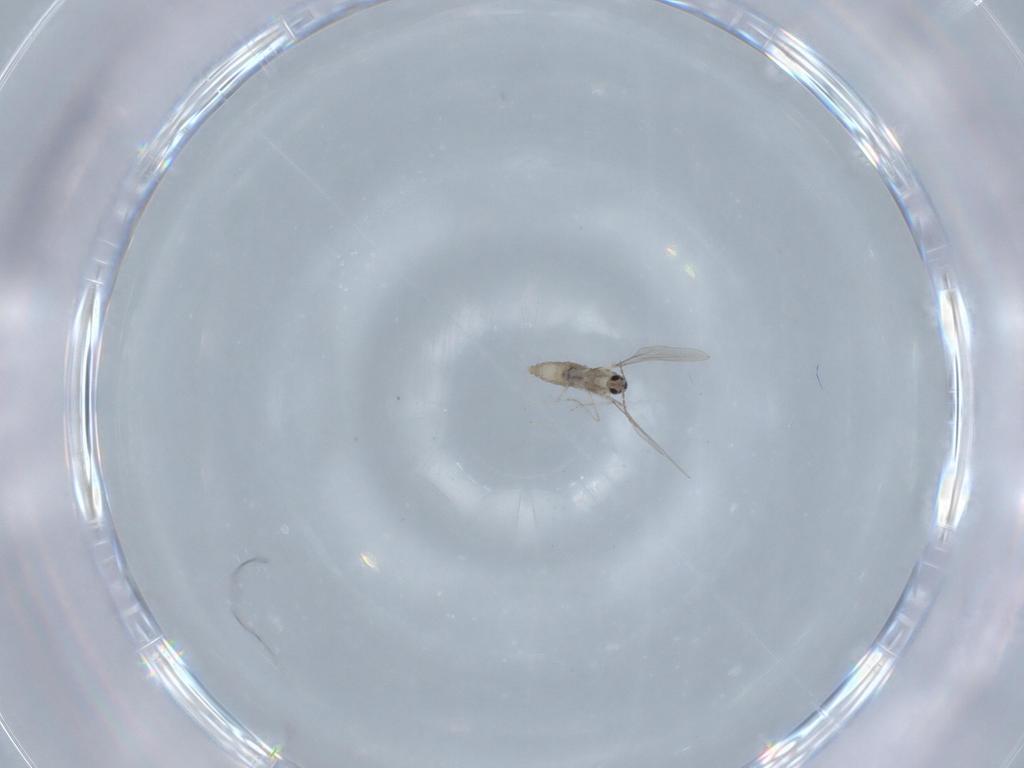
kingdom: Animalia
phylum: Arthropoda
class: Insecta
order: Diptera
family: Cecidomyiidae
